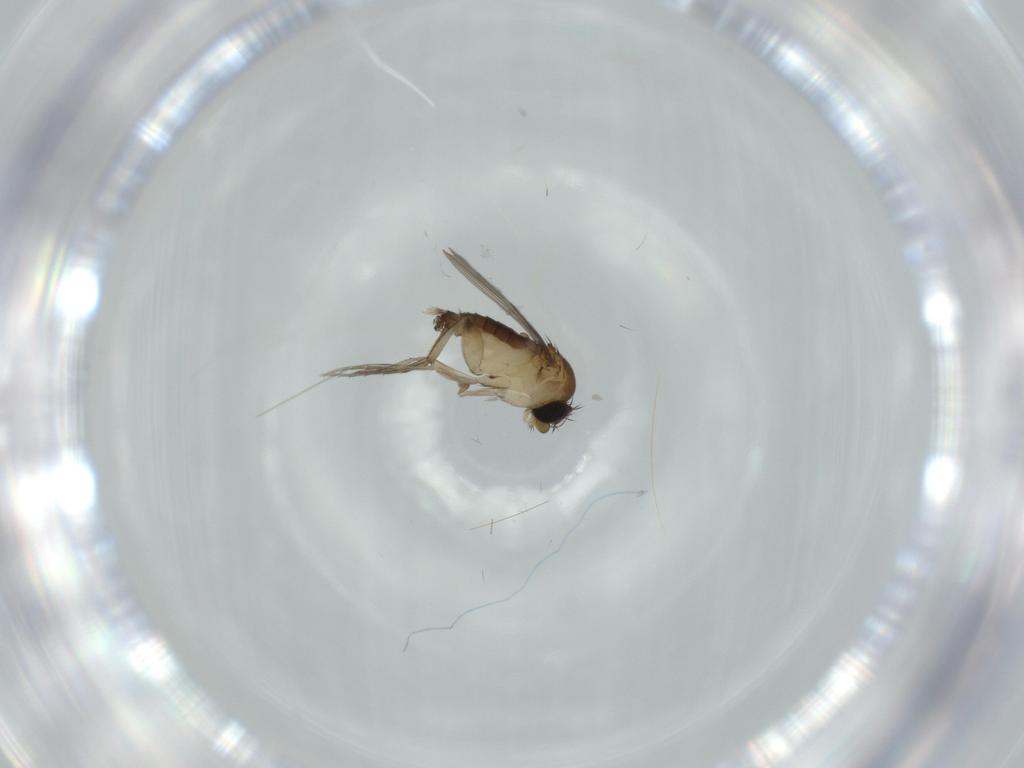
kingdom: Animalia
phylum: Arthropoda
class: Insecta
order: Diptera
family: Phoridae
